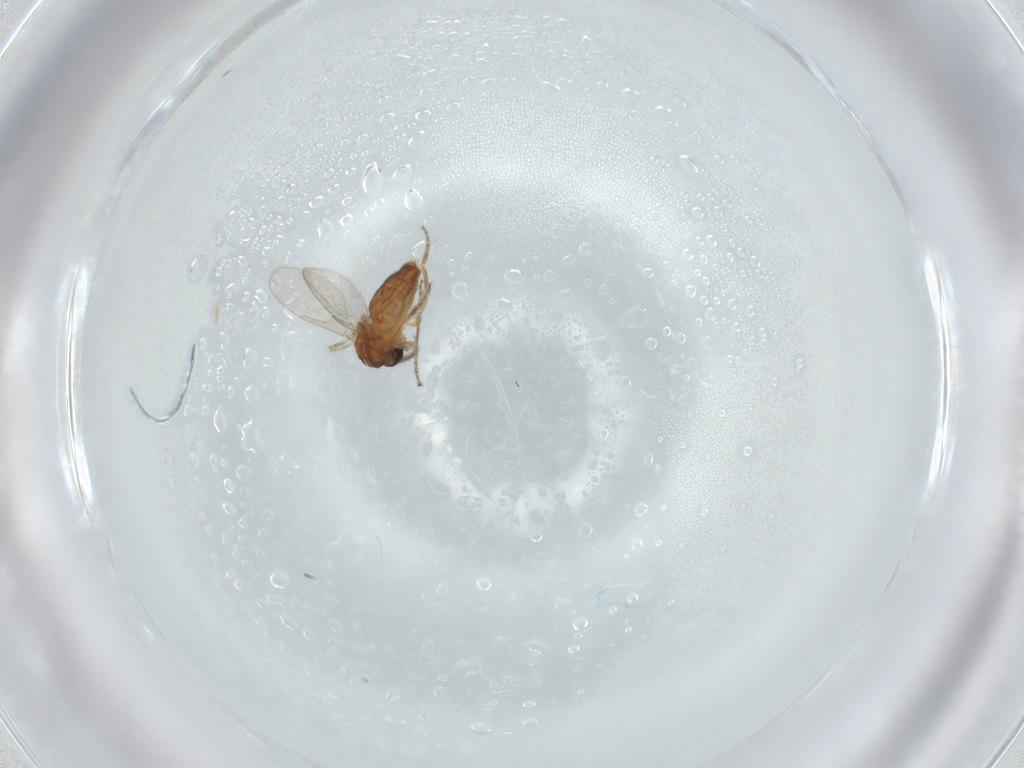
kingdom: Animalia
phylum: Arthropoda
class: Insecta
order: Diptera
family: Ceratopogonidae
